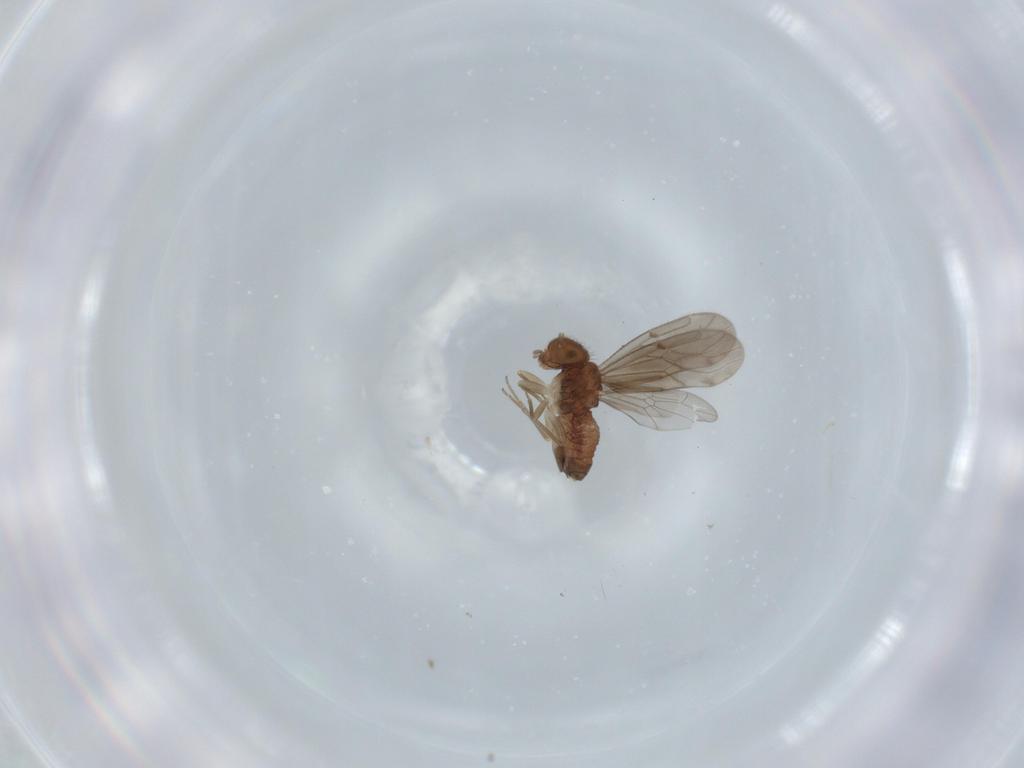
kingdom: Animalia
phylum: Arthropoda
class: Insecta
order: Psocodea
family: Ectopsocidae
